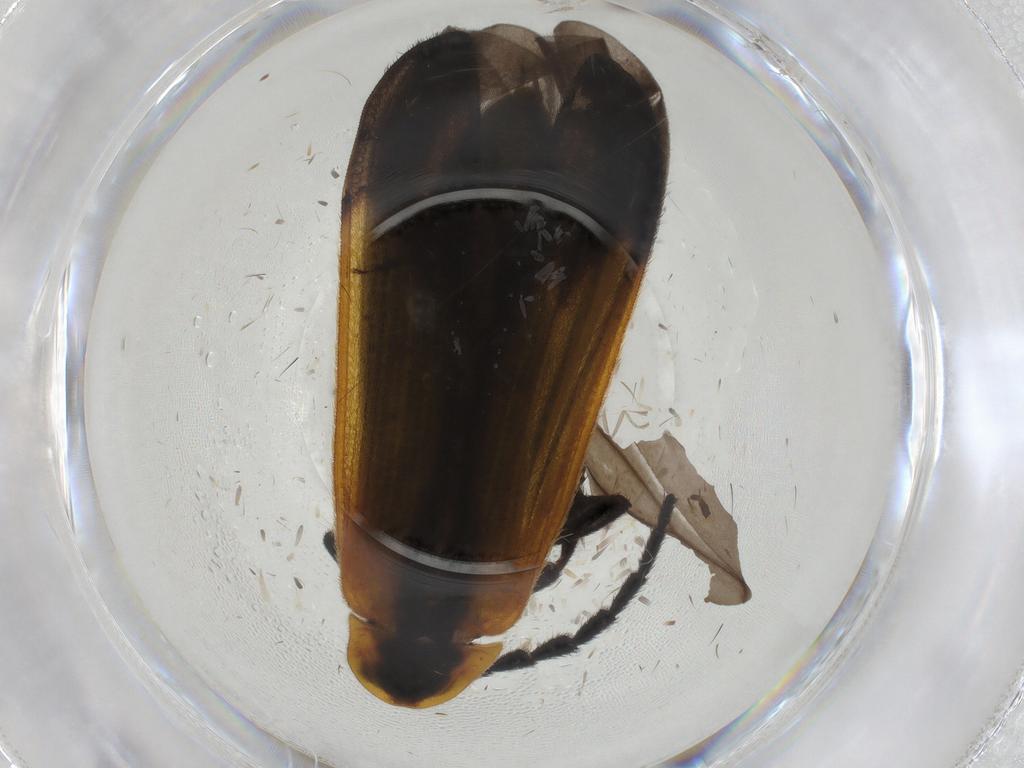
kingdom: Animalia
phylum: Arthropoda
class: Insecta
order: Coleoptera
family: Lycidae
